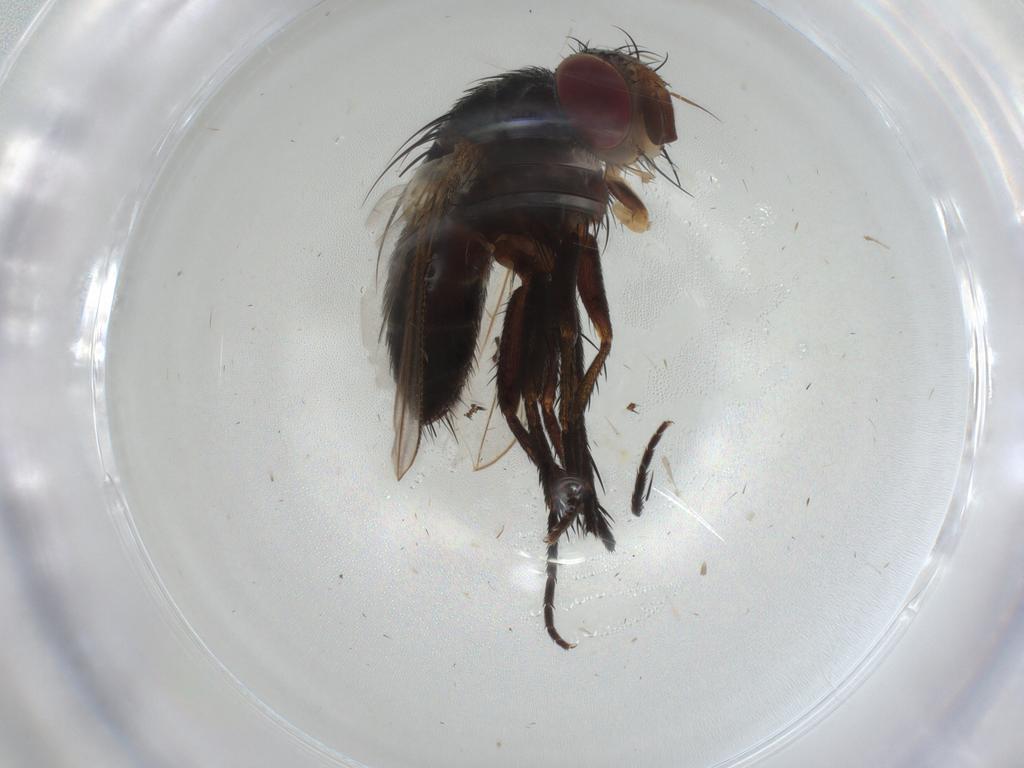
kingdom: Animalia
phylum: Arthropoda
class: Insecta
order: Diptera
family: Tachinidae
